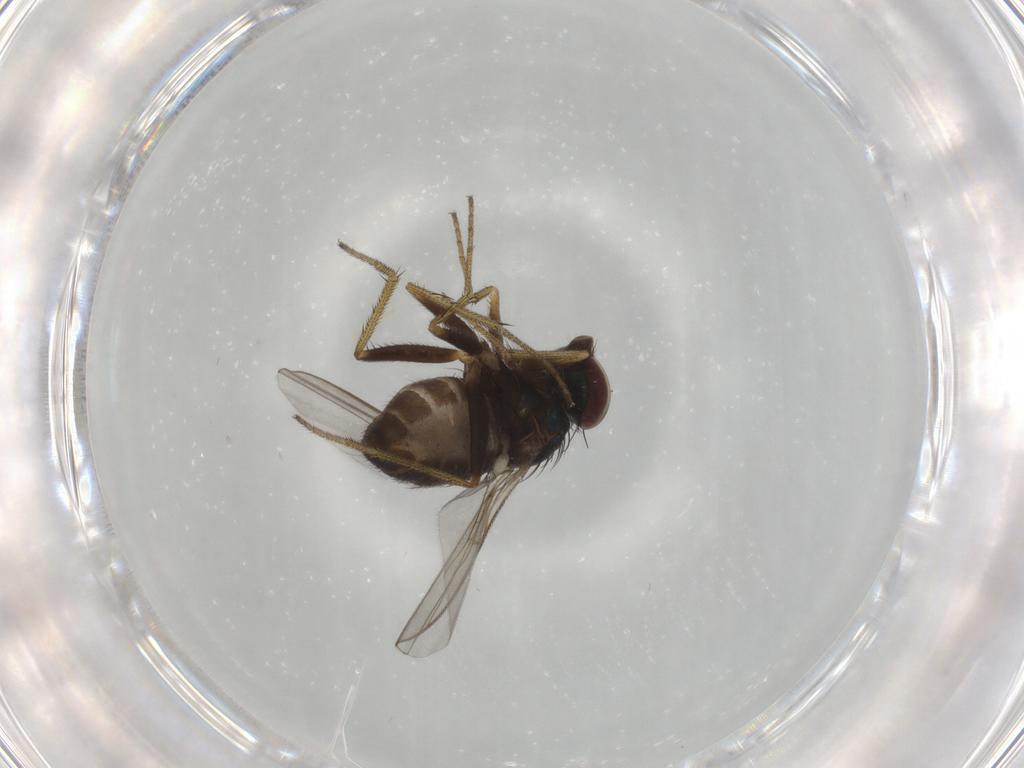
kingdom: Animalia
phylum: Arthropoda
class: Insecta
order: Diptera
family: Dolichopodidae
